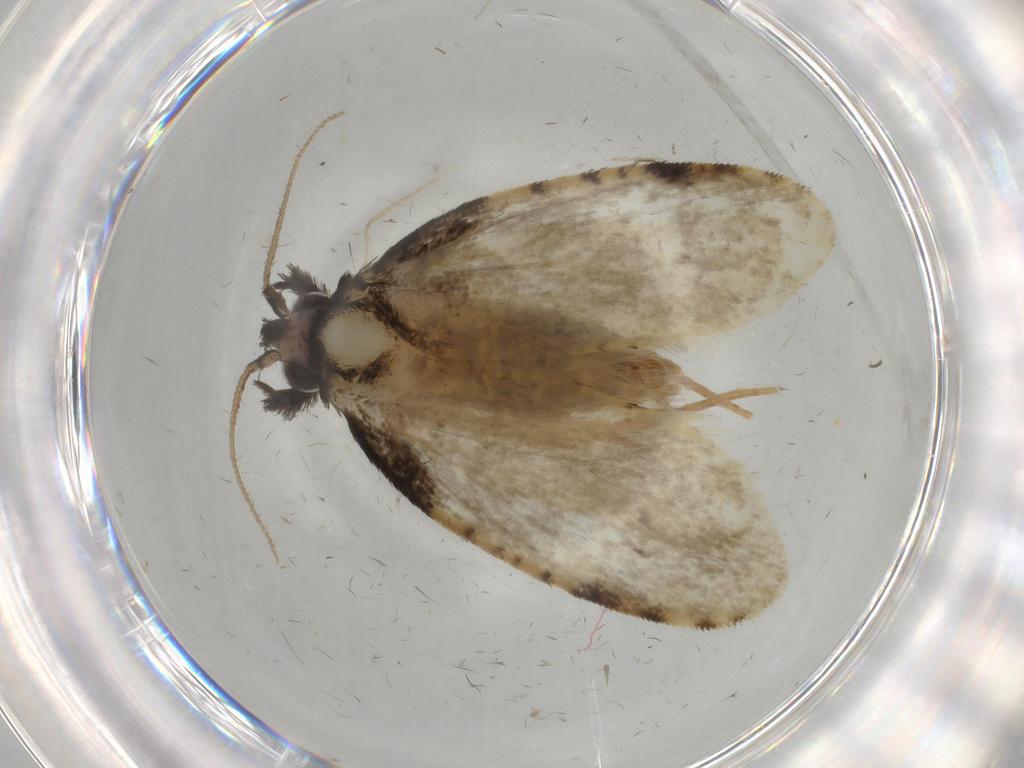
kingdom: Animalia
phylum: Arthropoda
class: Insecta
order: Lepidoptera
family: Psychidae
